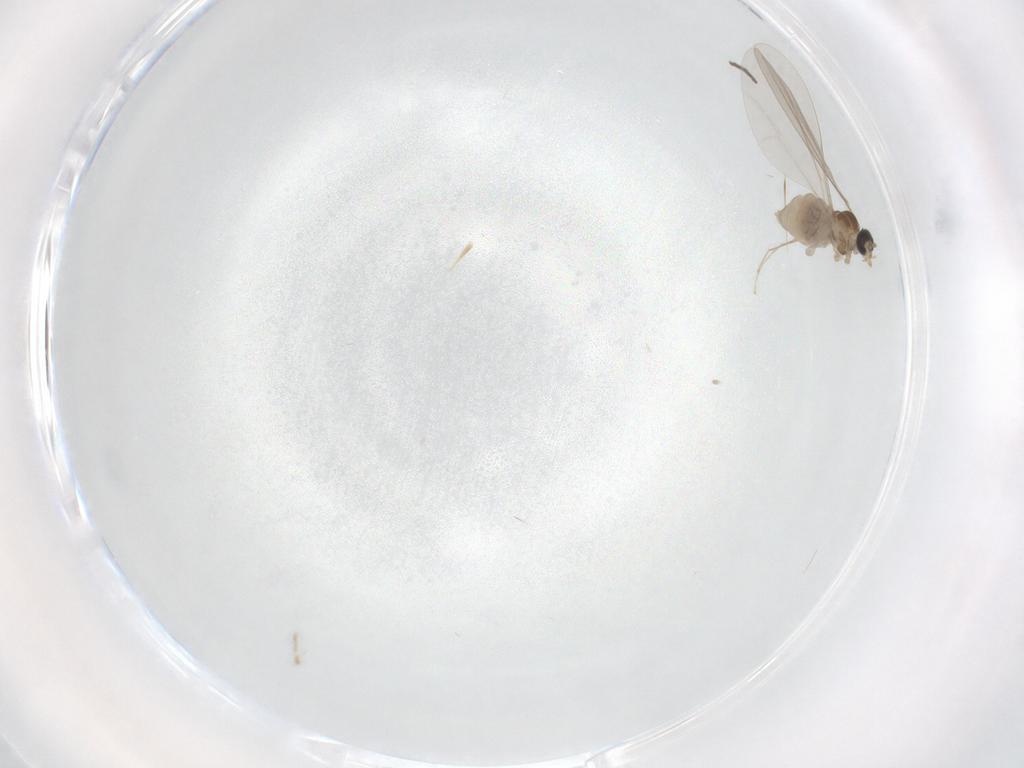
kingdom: Animalia
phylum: Arthropoda
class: Insecta
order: Diptera
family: Cecidomyiidae
